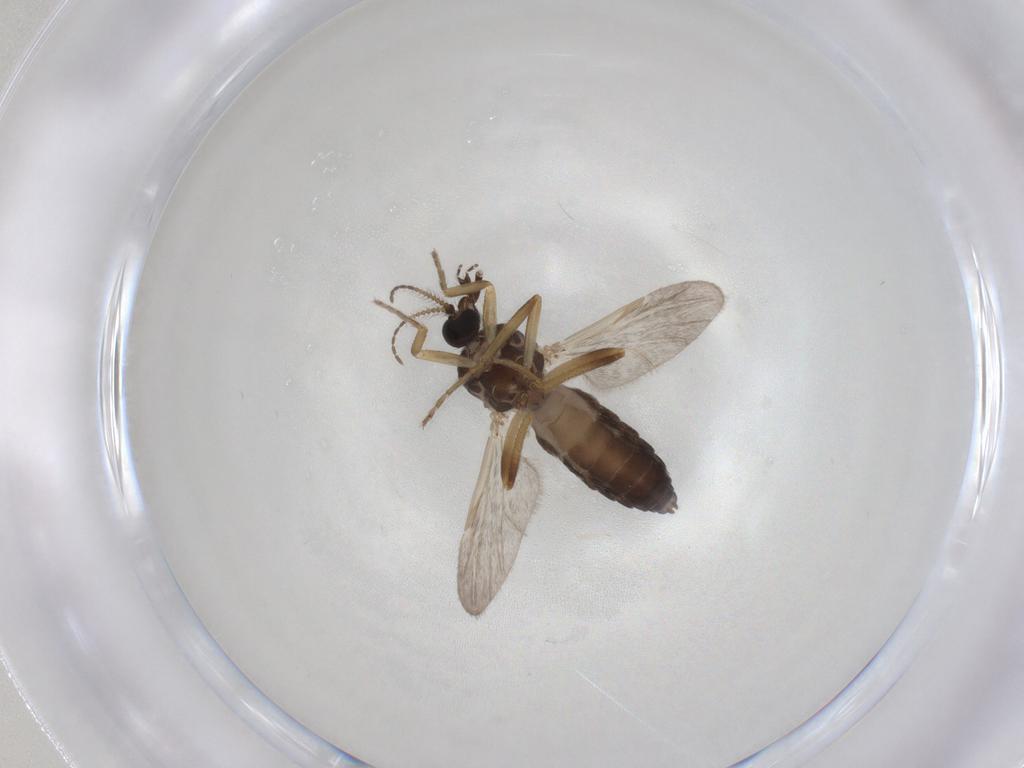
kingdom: Animalia
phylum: Arthropoda
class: Insecta
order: Diptera
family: Ceratopogonidae
